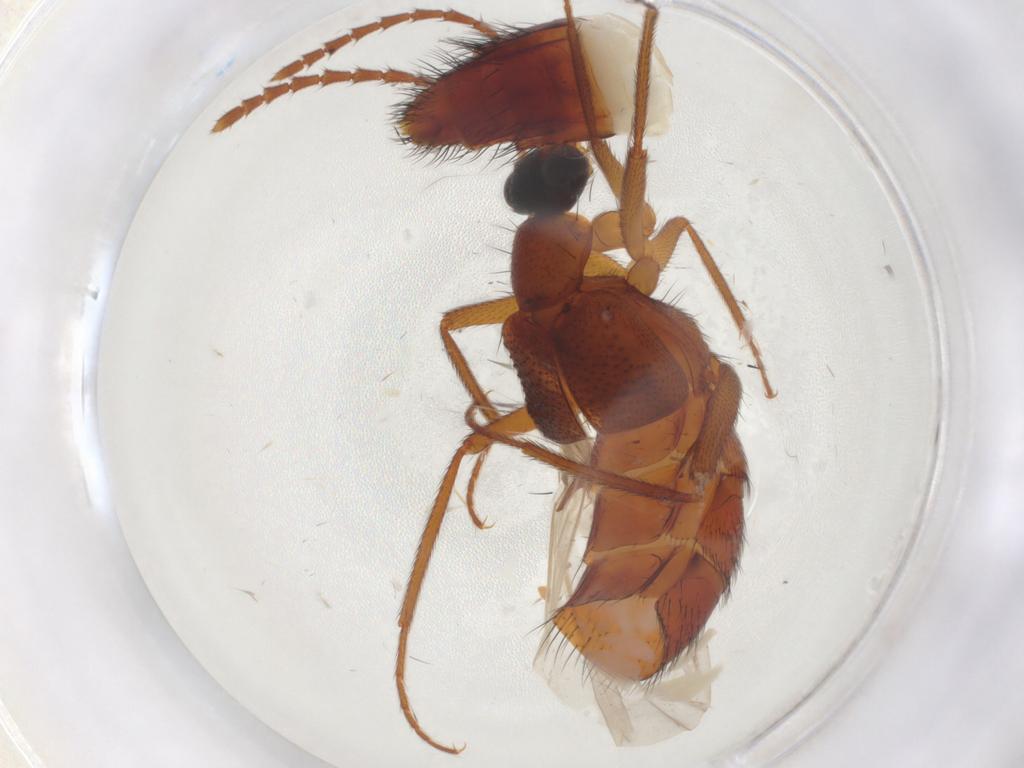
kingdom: Animalia
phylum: Arthropoda
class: Insecta
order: Coleoptera
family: Staphylinidae
